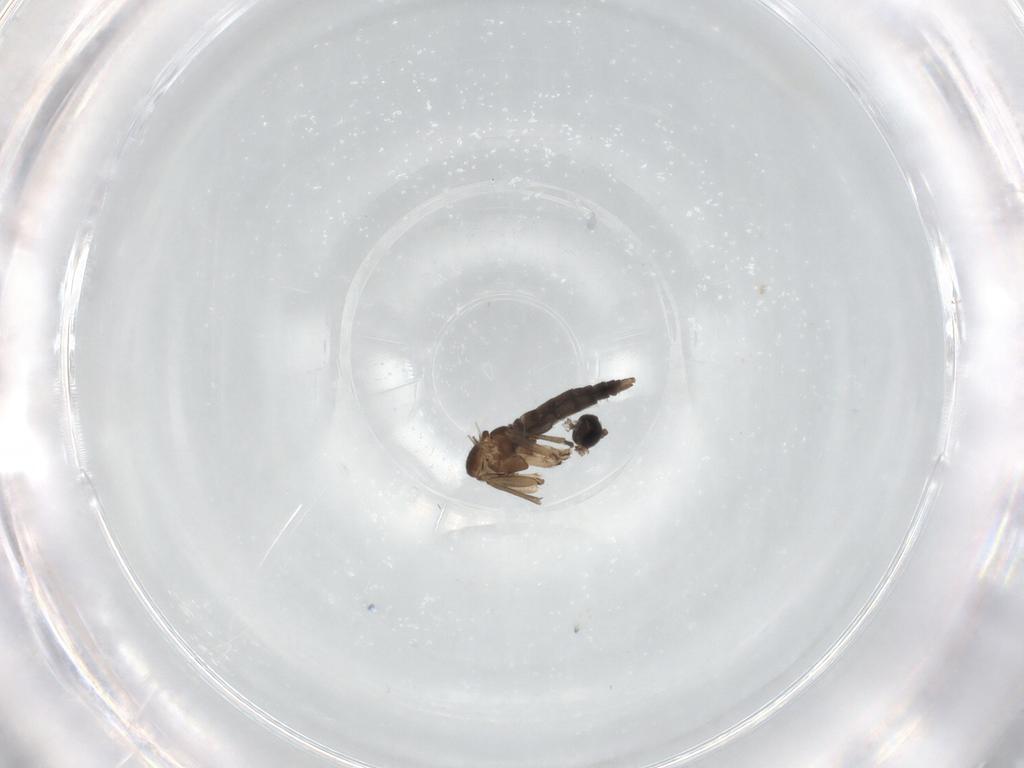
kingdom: Animalia
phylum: Arthropoda
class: Insecta
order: Diptera
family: Sciaridae
